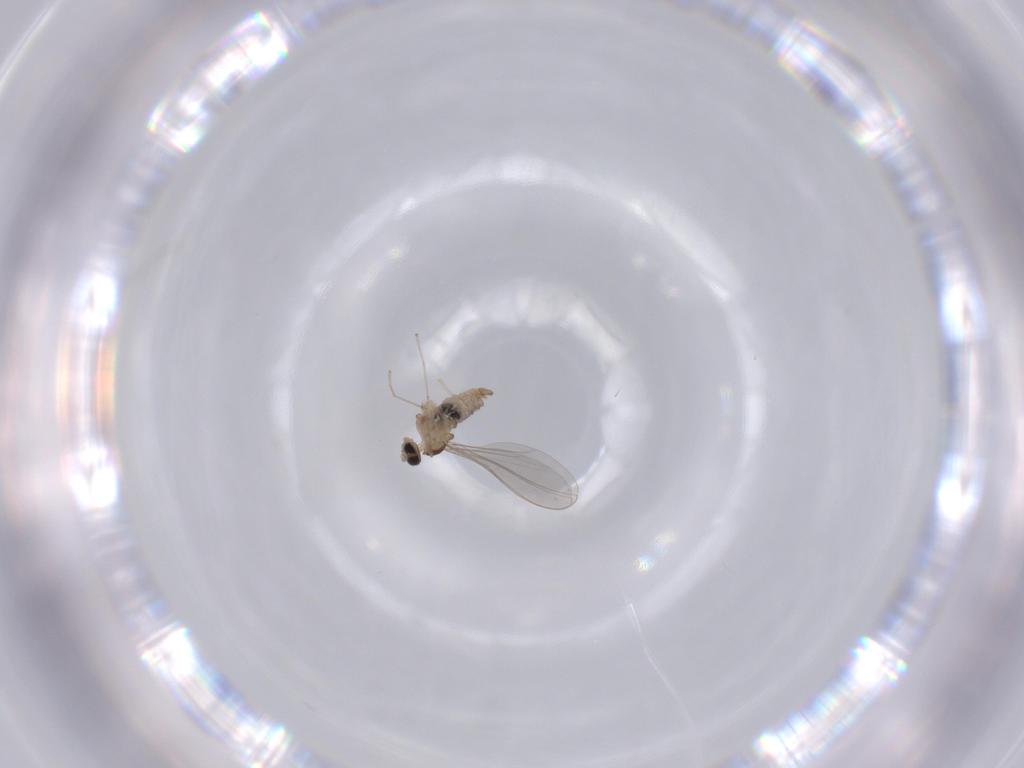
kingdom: Animalia
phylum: Arthropoda
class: Insecta
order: Diptera
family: Cecidomyiidae
